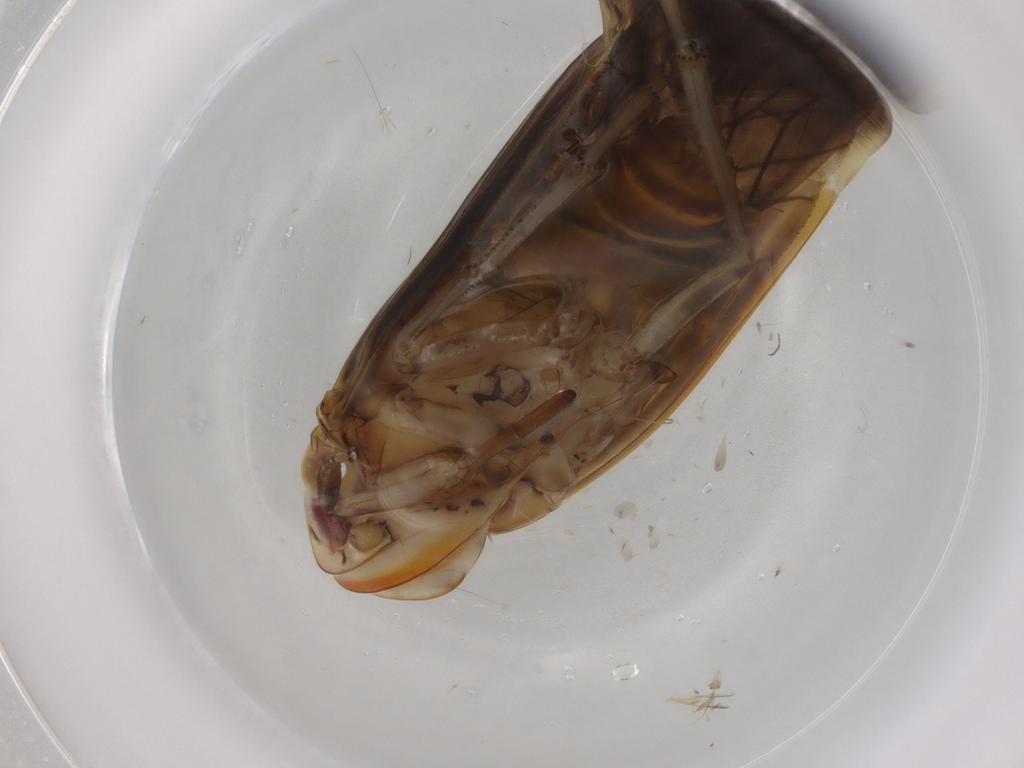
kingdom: Animalia
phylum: Arthropoda
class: Insecta
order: Hemiptera
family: Achilidae
